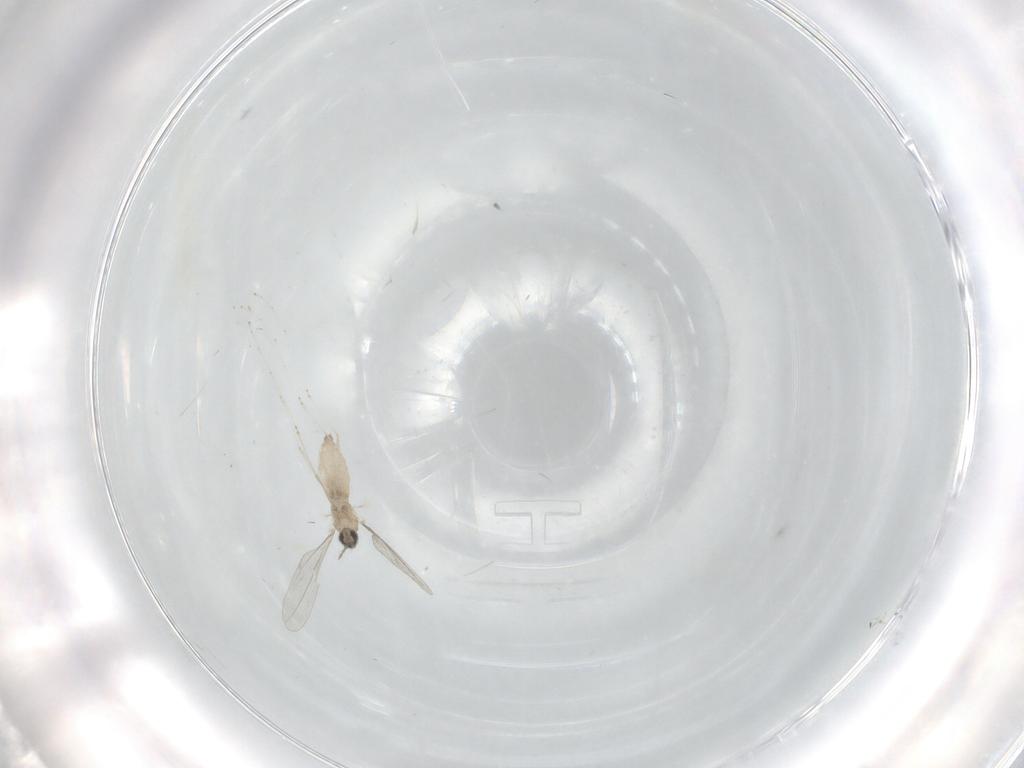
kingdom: Animalia
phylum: Arthropoda
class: Insecta
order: Diptera
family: Cecidomyiidae
